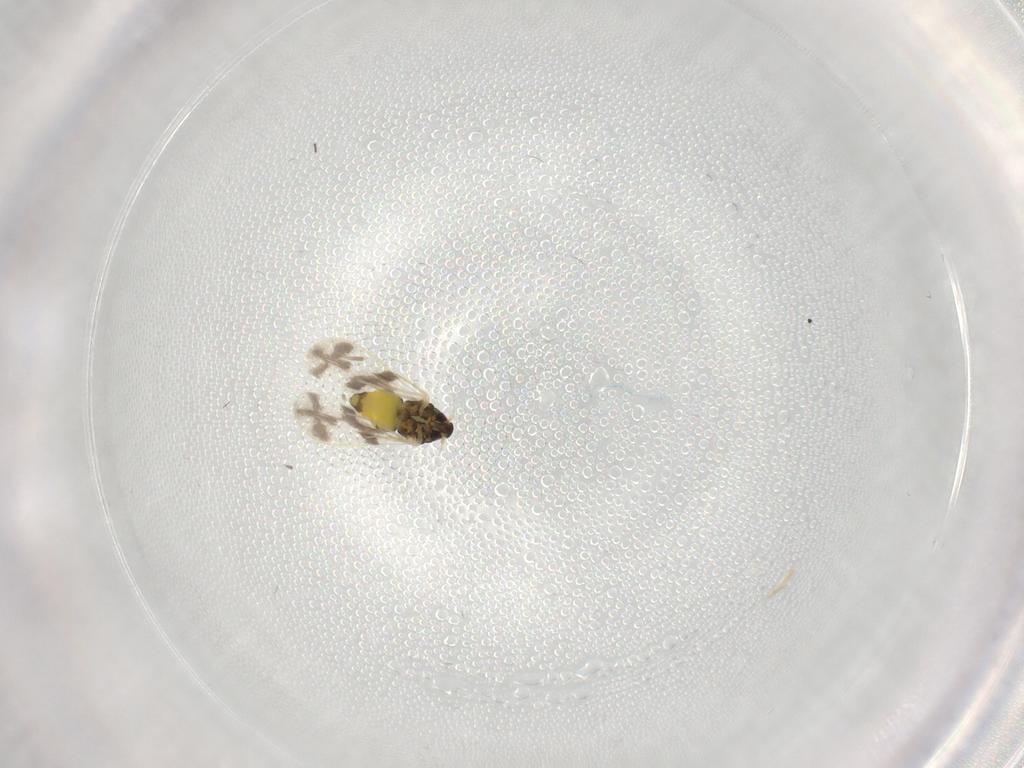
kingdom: Animalia
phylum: Arthropoda
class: Insecta
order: Hemiptera
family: Aleyrodidae
